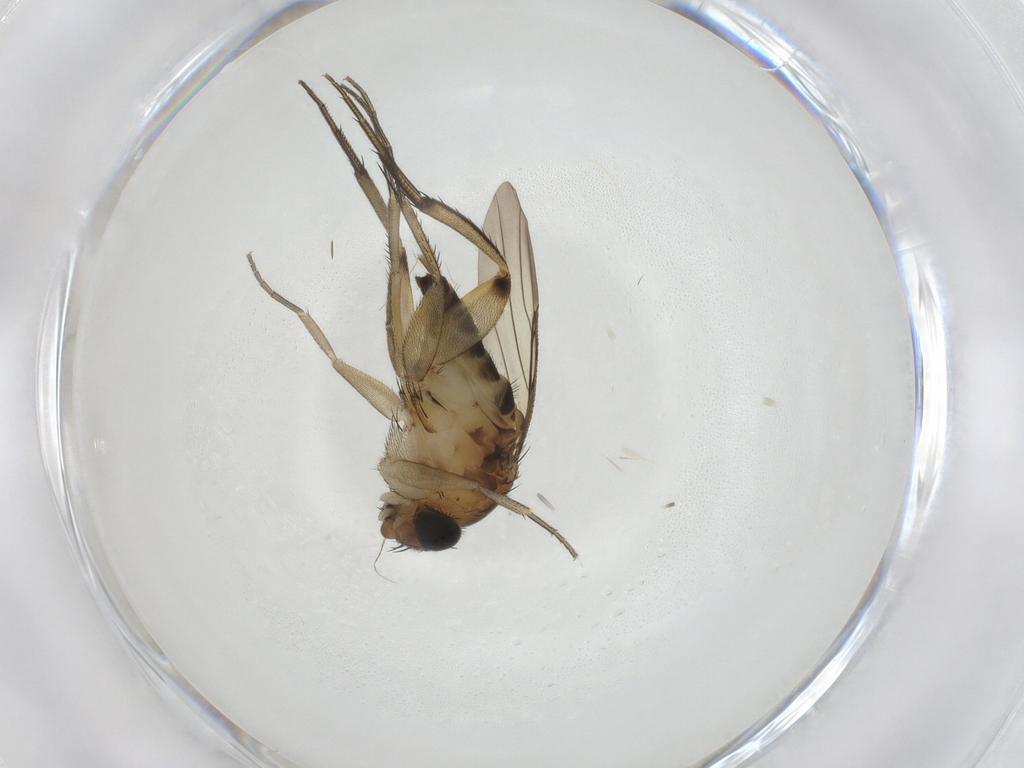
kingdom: Animalia
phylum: Arthropoda
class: Insecta
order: Diptera
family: Phoridae
